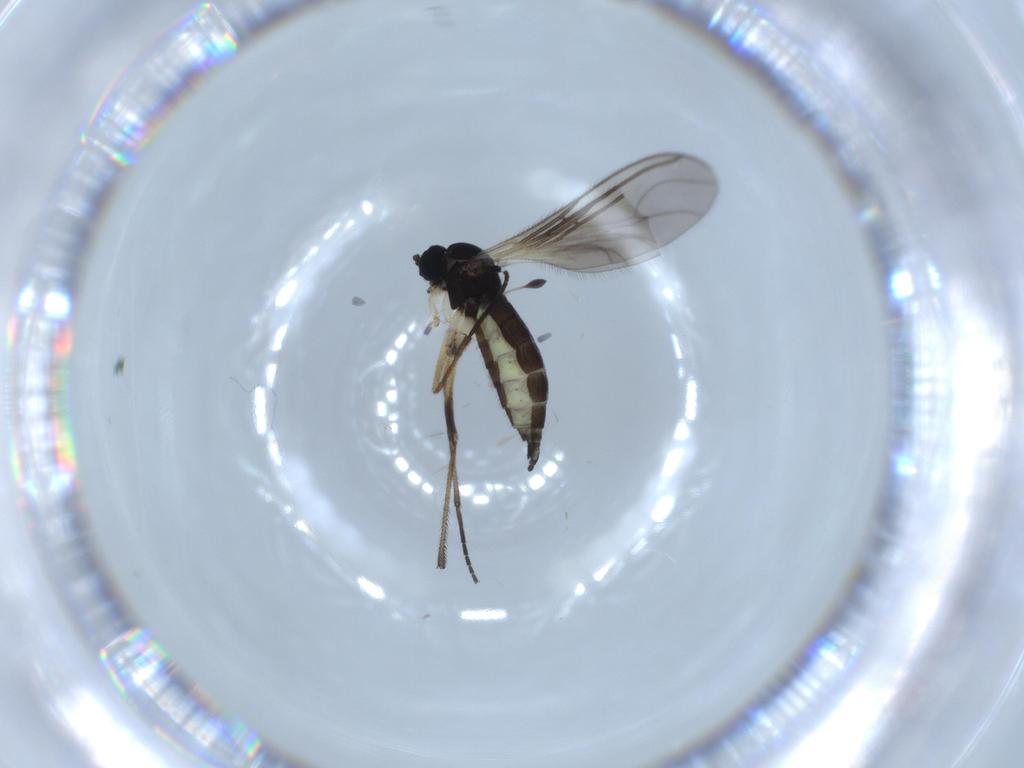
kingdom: Animalia
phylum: Arthropoda
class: Insecta
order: Diptera
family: Sciaridae
